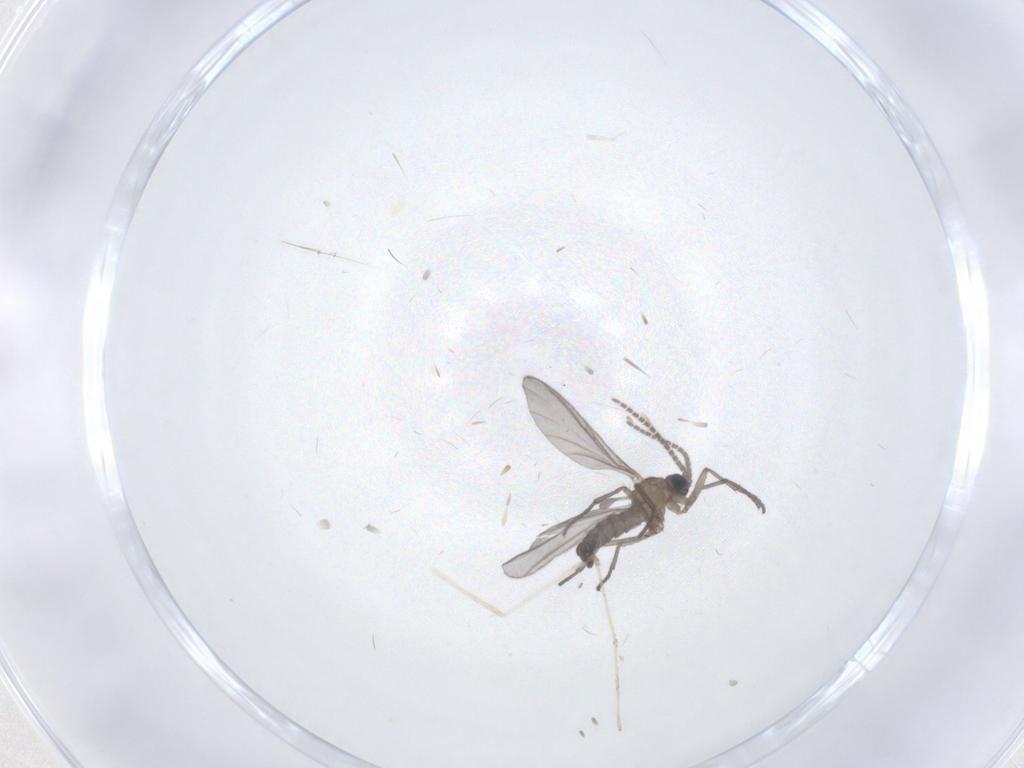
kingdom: Animalia
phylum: Arthropoda
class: Insecta
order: Diptera
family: Cecidomyiidae
